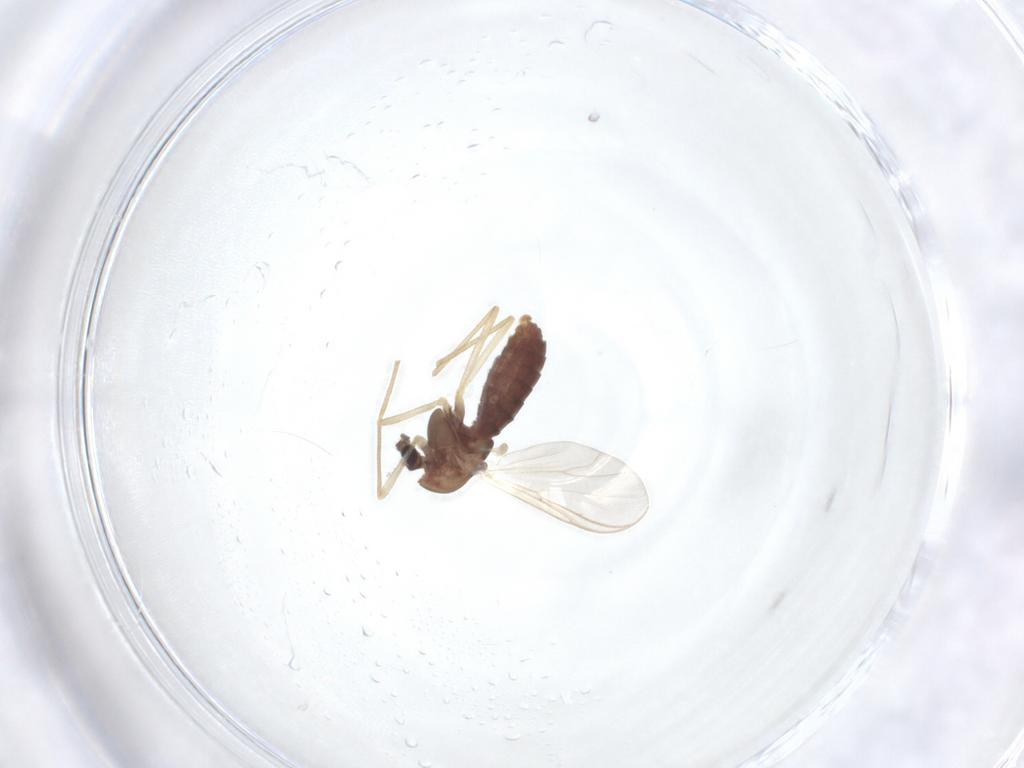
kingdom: Animalia
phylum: Arthropoda
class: Insecta
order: Diptera
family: Chironomidae
